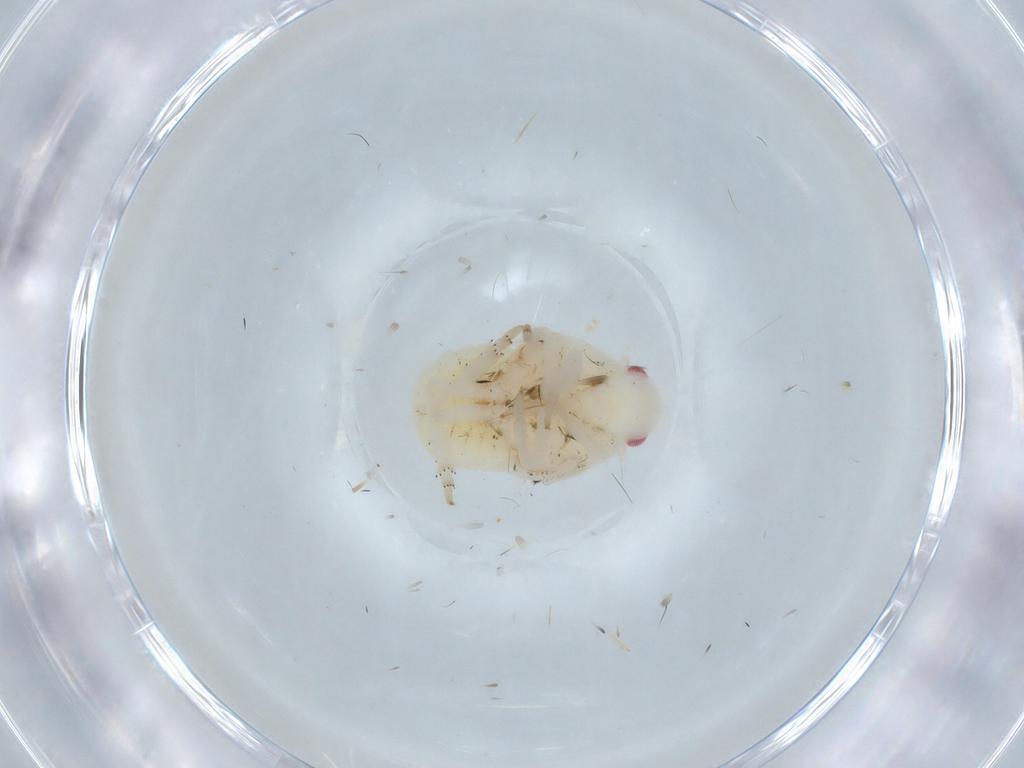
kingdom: Animalia
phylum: Arthropoda
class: Insecta
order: Hemiptera
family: Flatidae
